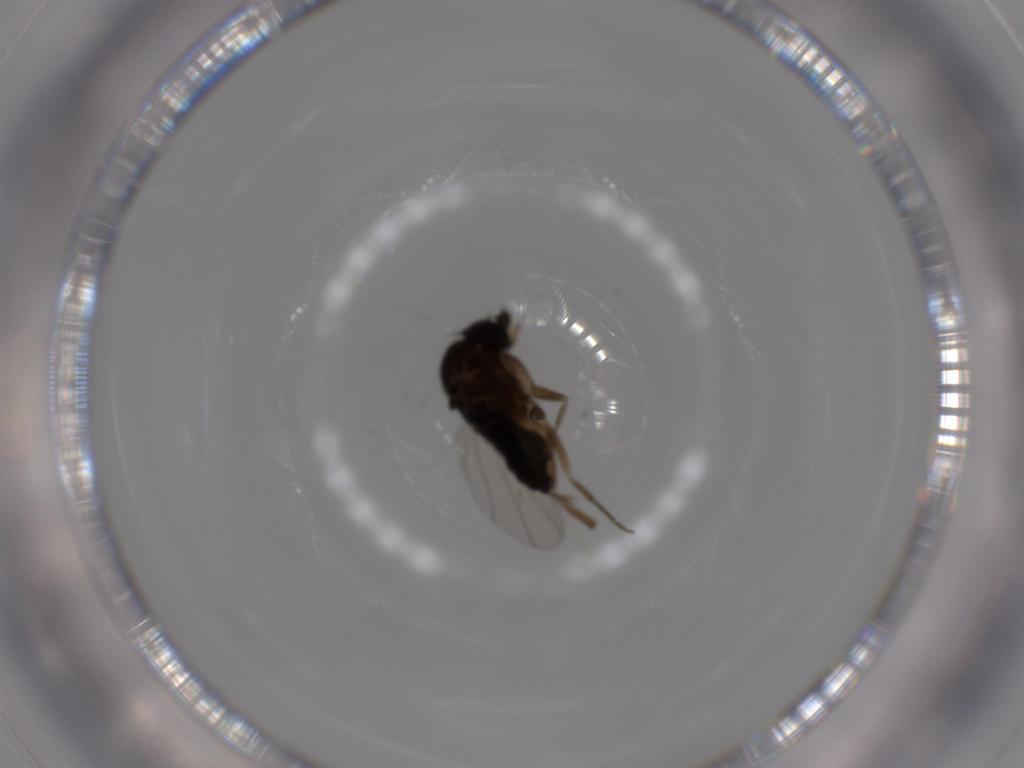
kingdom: Animalia
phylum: Arthropoda
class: Insecta
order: Diptera
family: Phoridae
